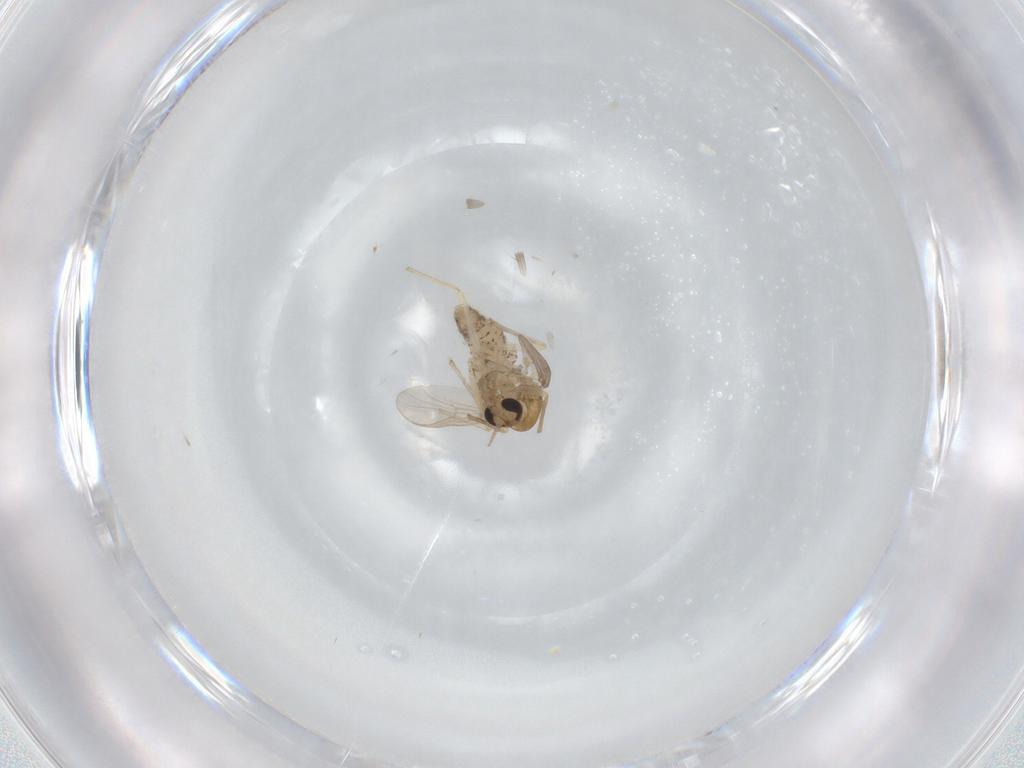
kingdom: Animalia
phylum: Arthropoda
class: Insecta
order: Diptera
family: Chironomidae
